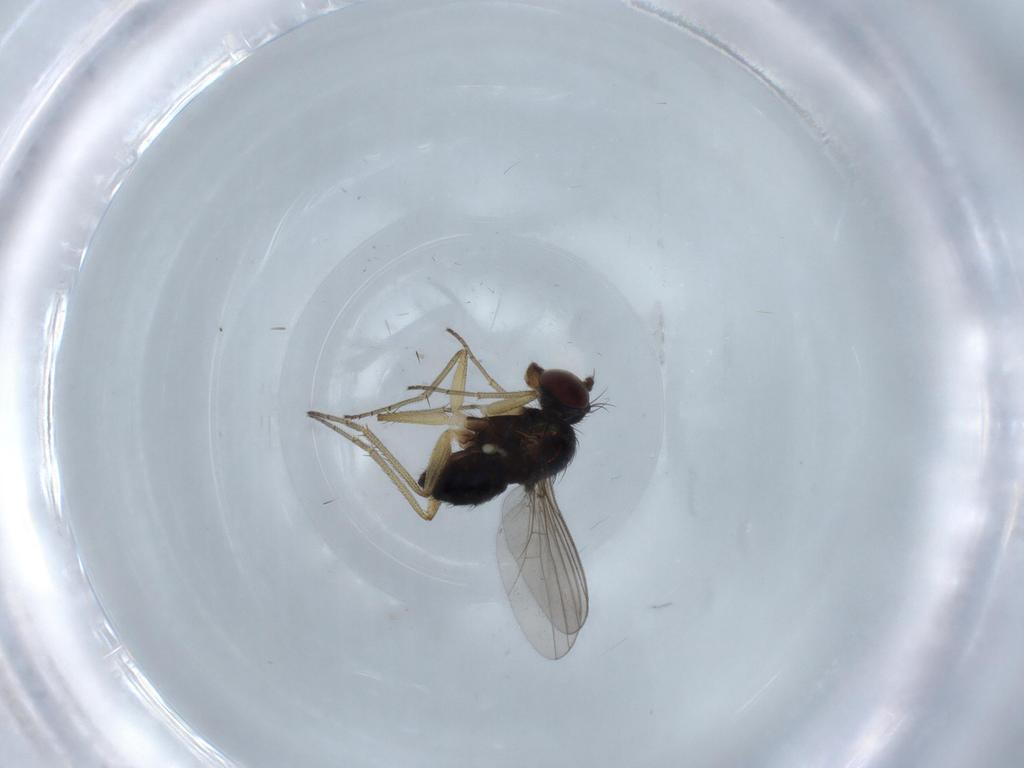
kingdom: Animalia
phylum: Arthropoda
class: Insecta
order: Diptera
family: Dolichopodidae
